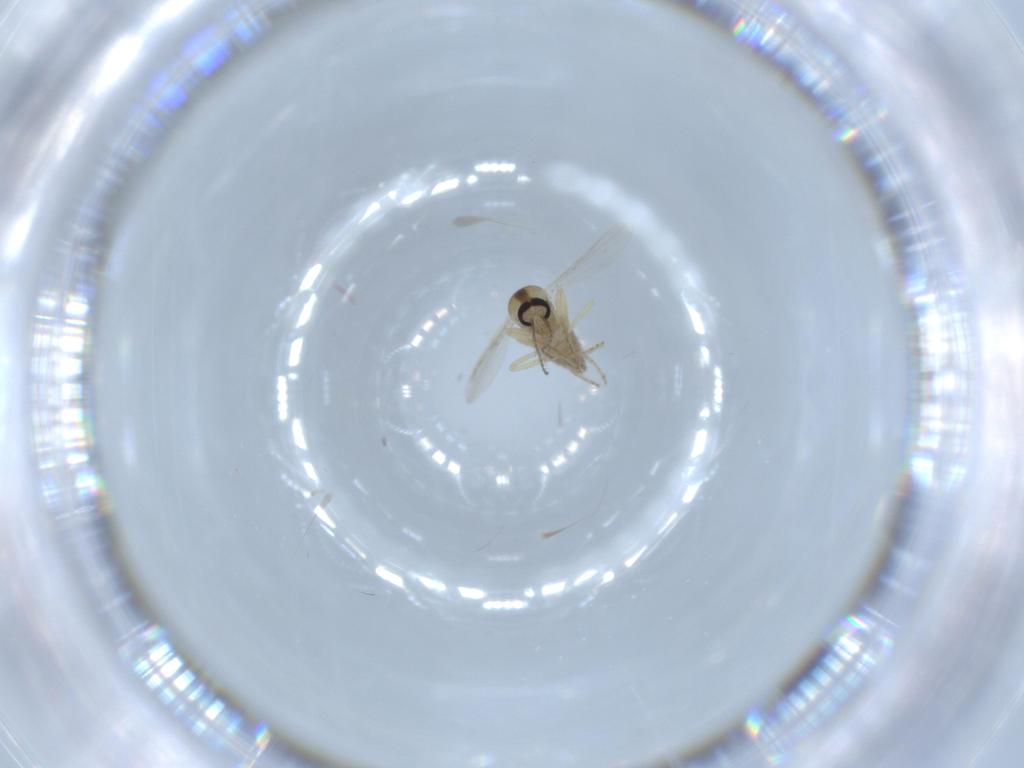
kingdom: Animalia
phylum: Arthropoda
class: Insecta
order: Diptera
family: Ceratopogonidae
